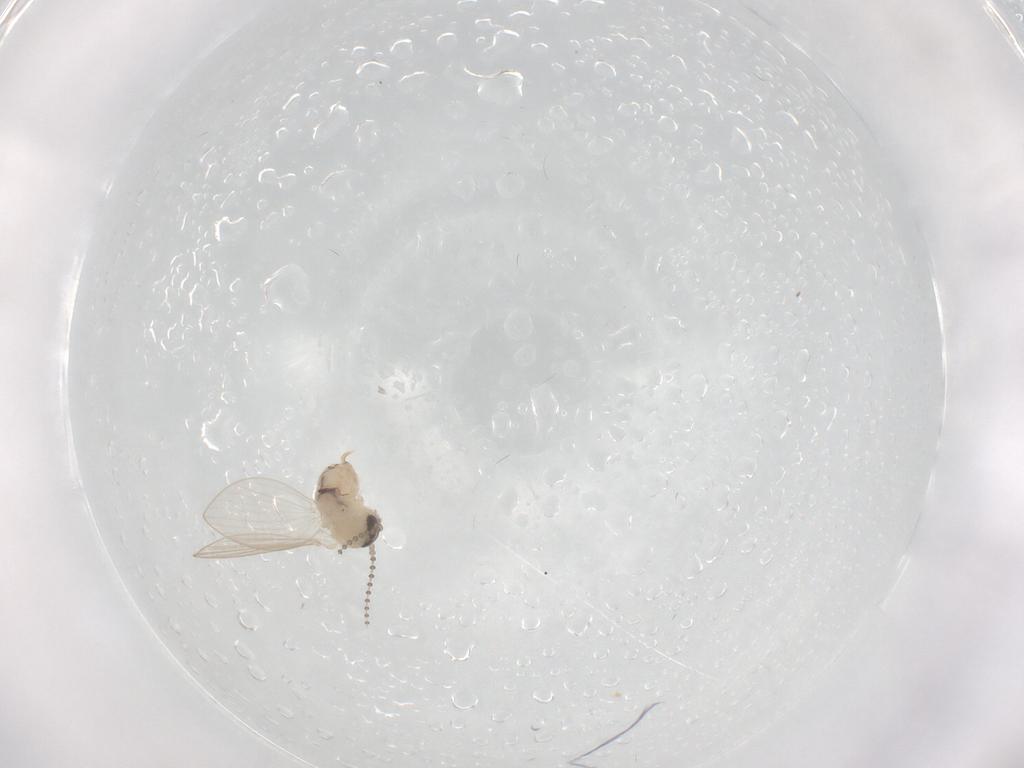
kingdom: Animalia
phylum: Arthropoda
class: Insecta
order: Diptera
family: Psychodidae
